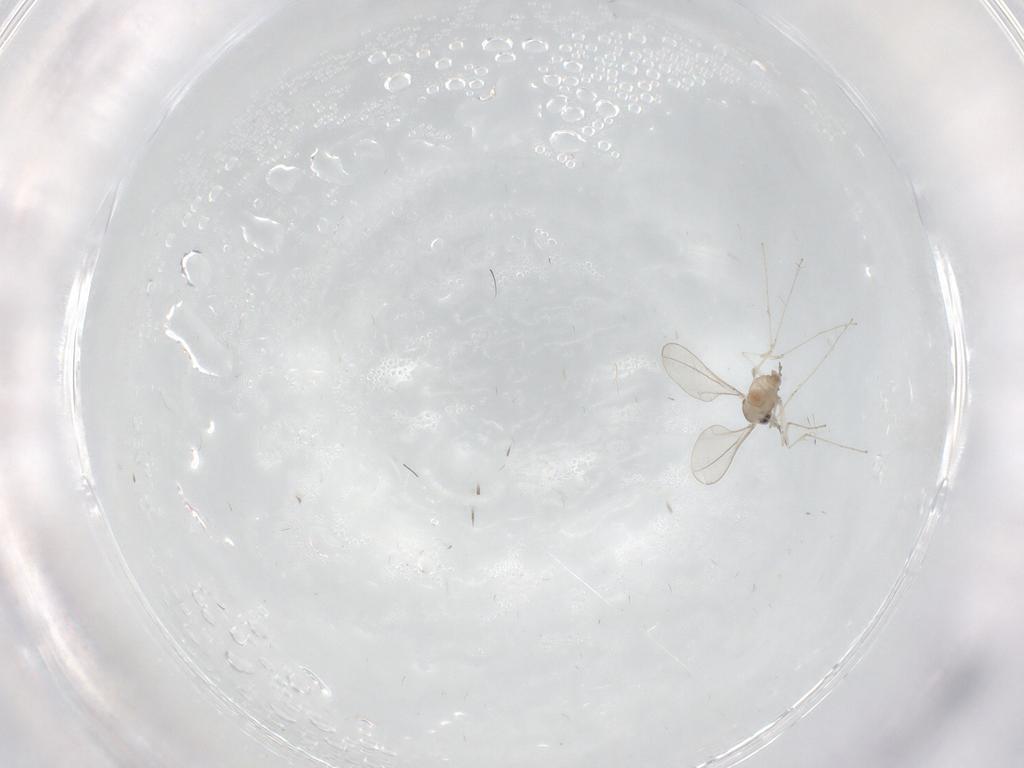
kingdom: Animalia
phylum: Arthropoda
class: Insecta
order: Diptera
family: Cecidomyiidae
